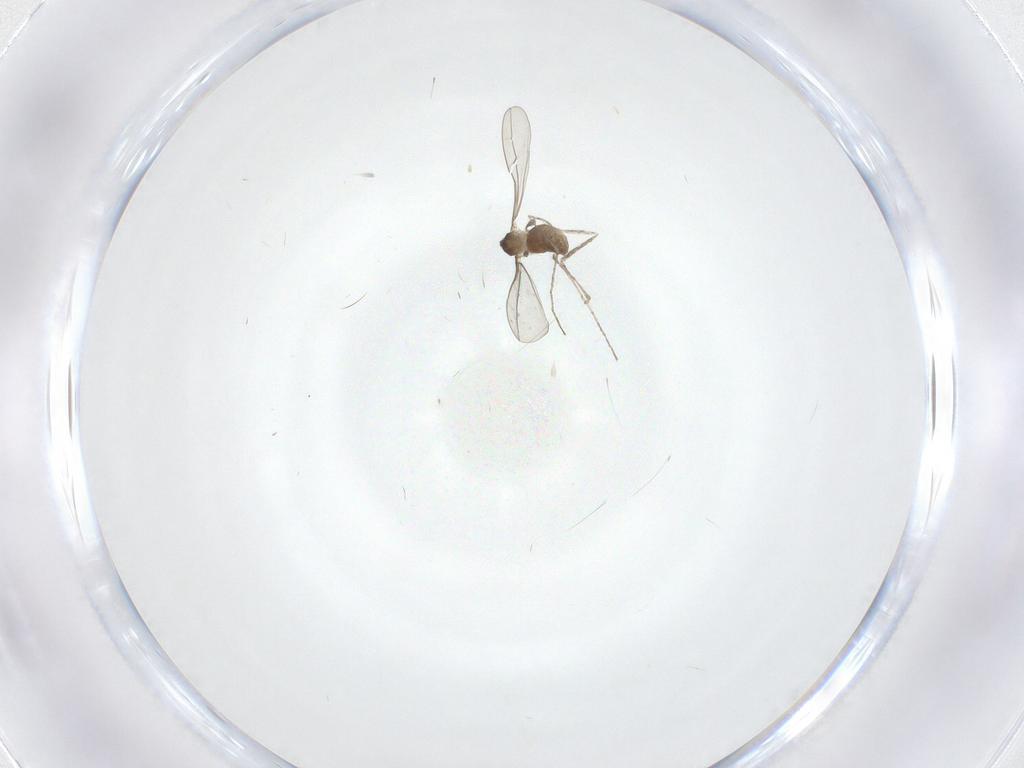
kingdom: Animalia
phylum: Arthropoda
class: Insecta
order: Diptera
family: Cecidomyiidae
